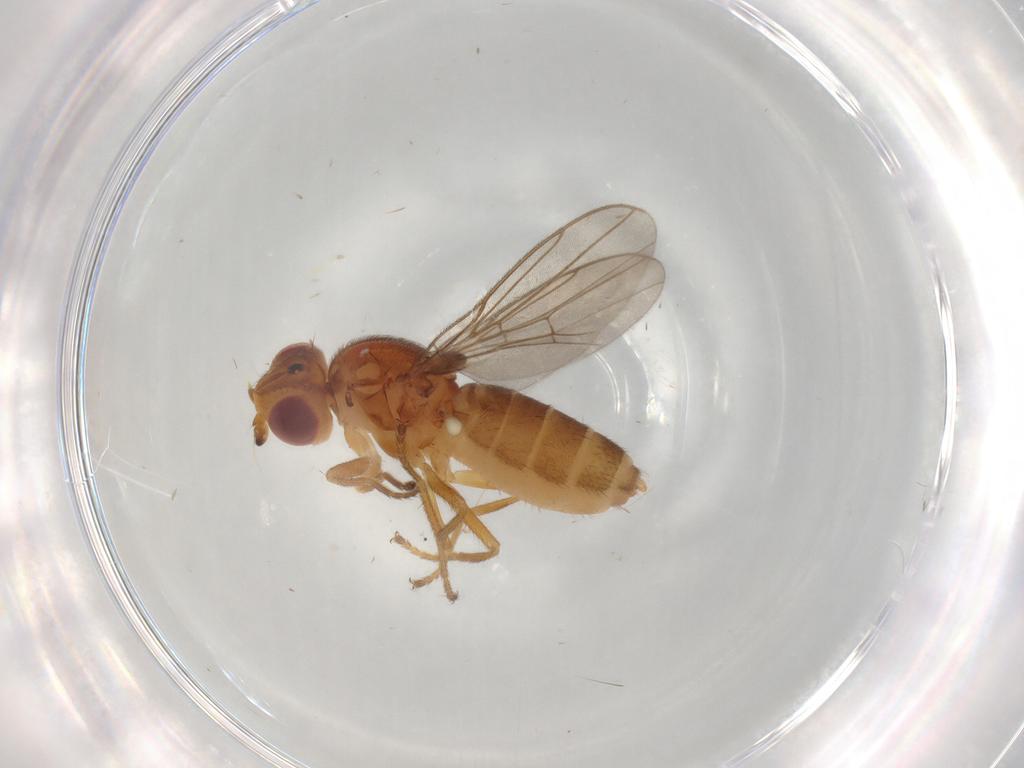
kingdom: Animalia
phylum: Arthropoda
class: Insecta
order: Diptera
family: Chloropidae
